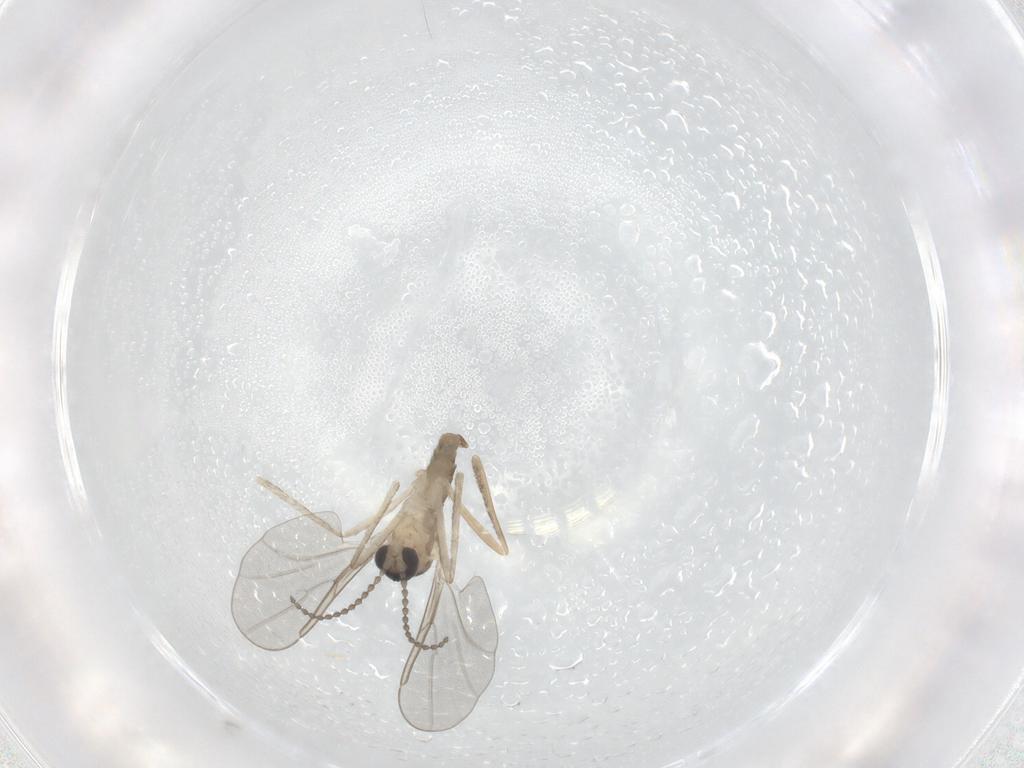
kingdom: Animalia
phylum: Arthropoda
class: Insecta
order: Diptera
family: Cecidomyiidae
